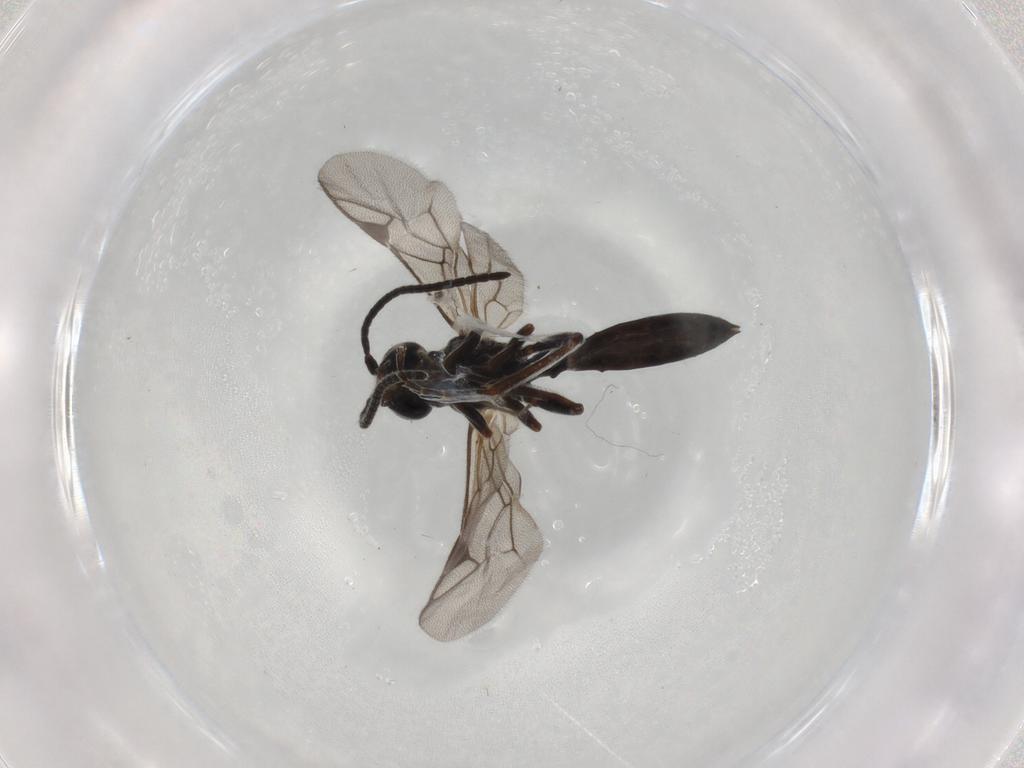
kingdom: Animalia
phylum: Arthropoda
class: Insecta
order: Hymenoptera
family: Ichneumonidae
